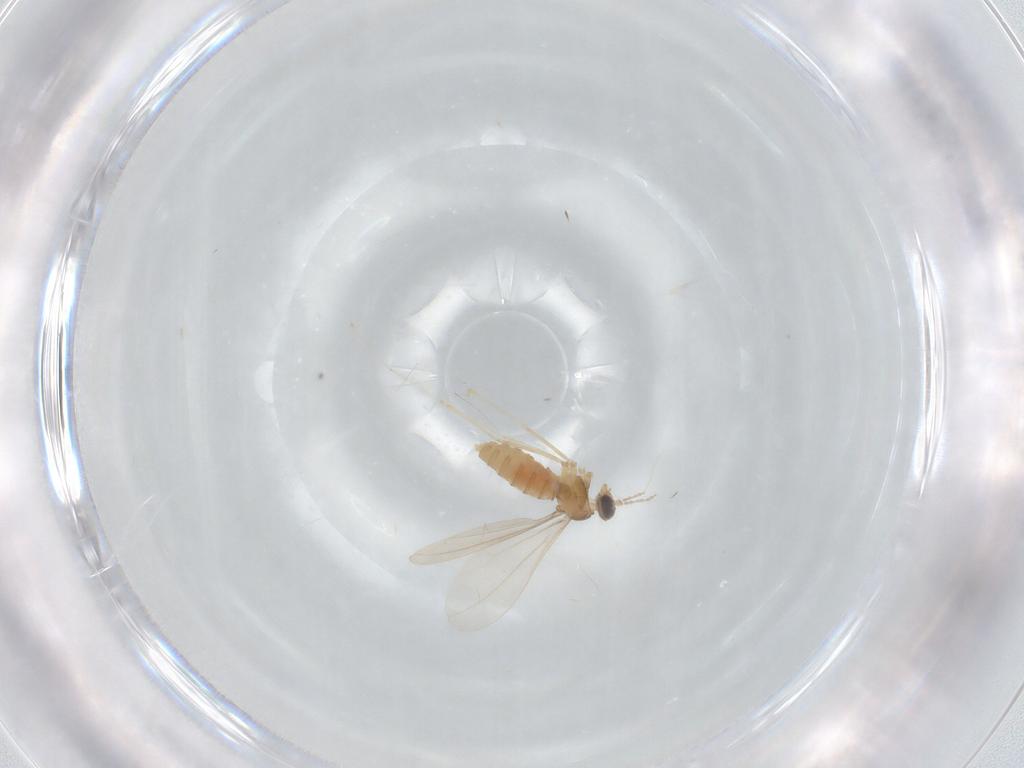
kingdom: Animalia
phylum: Arthropoda
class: Insecta
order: Diptera
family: Cecidomyiidae
